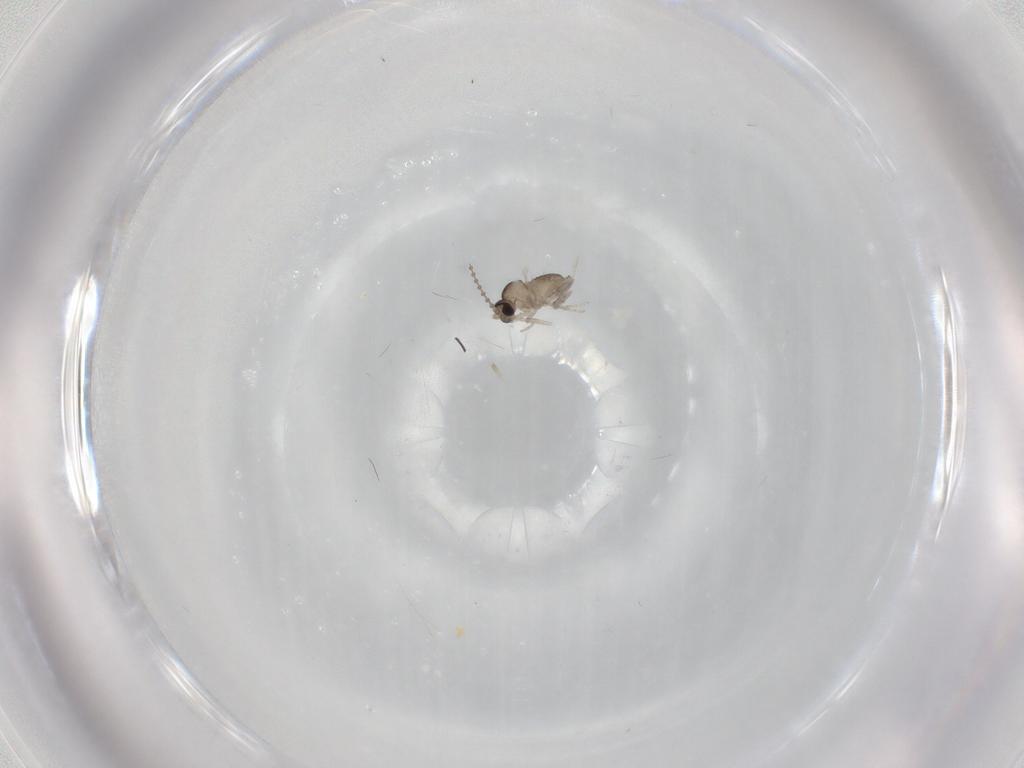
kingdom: Animalia
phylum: Arthropoda
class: Insecta
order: Diptera
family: Cecidomyiidae
